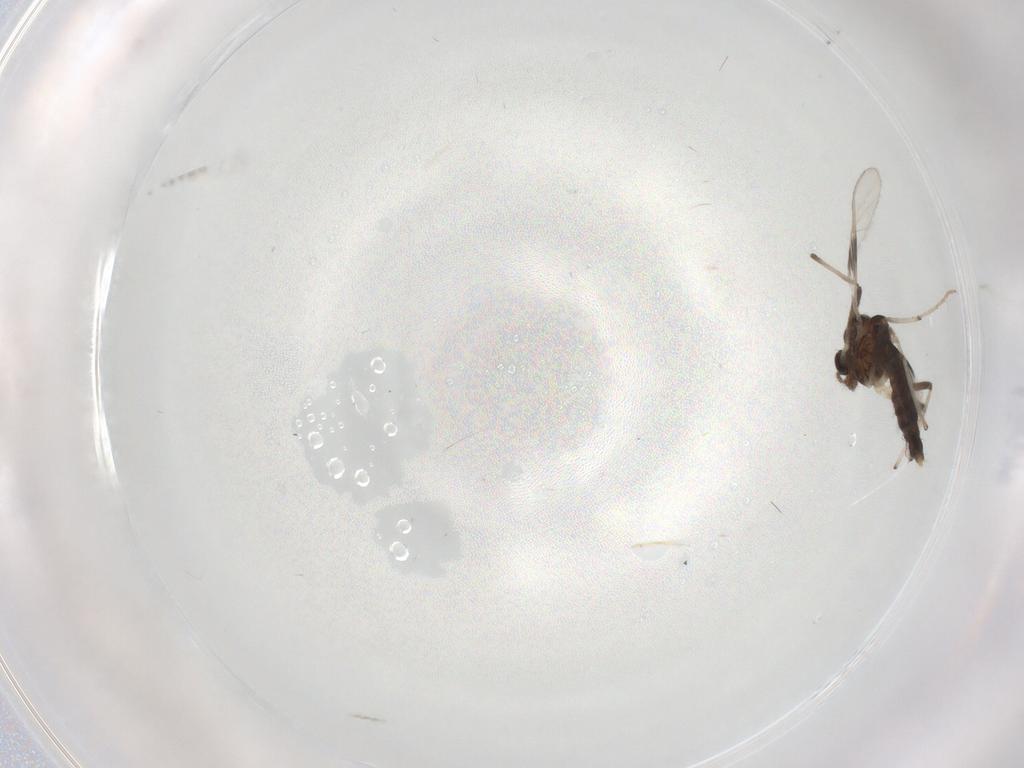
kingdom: Animalia
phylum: Arthropoda
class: Insecta
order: Diptera
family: Chironomidae
